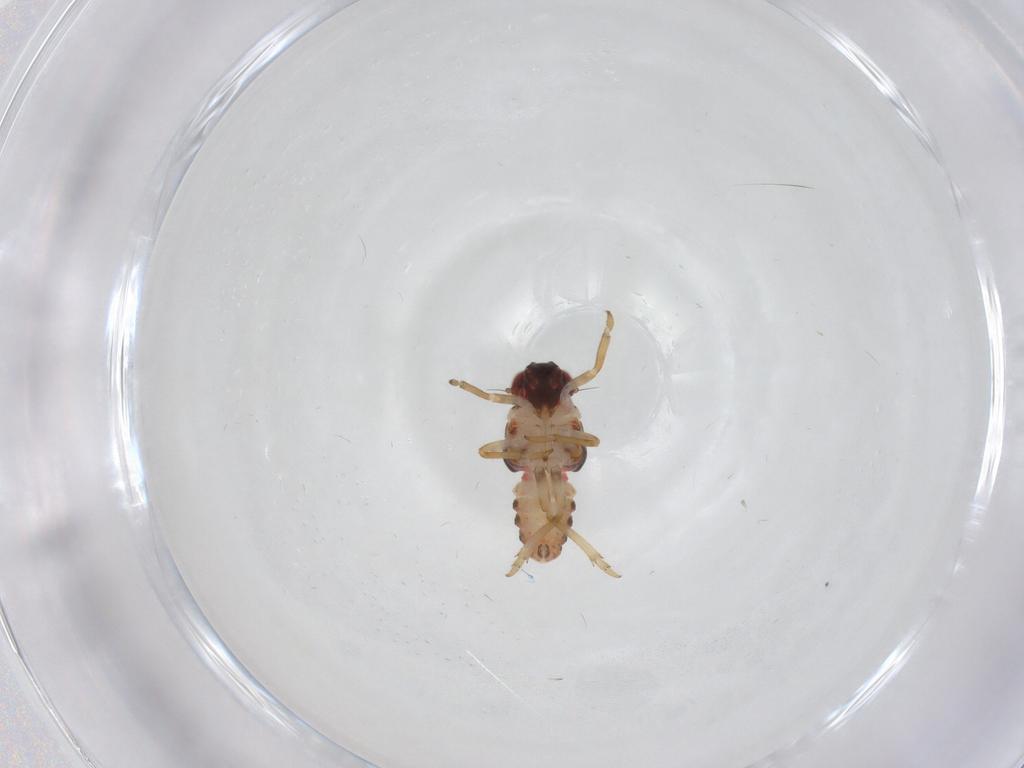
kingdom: Animalia
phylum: Arthropoda
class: Insecta
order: Hemiptera
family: Issidae
